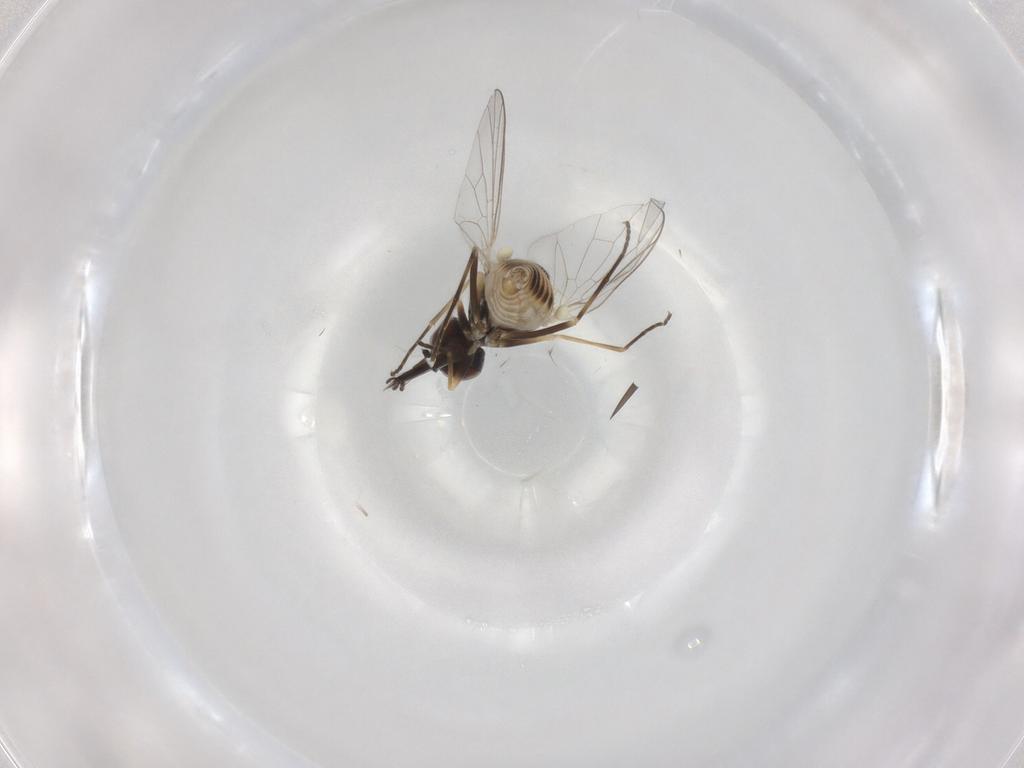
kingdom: Animalia
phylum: Arthropoda
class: Insecta
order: Diptera
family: Bombyliidae
